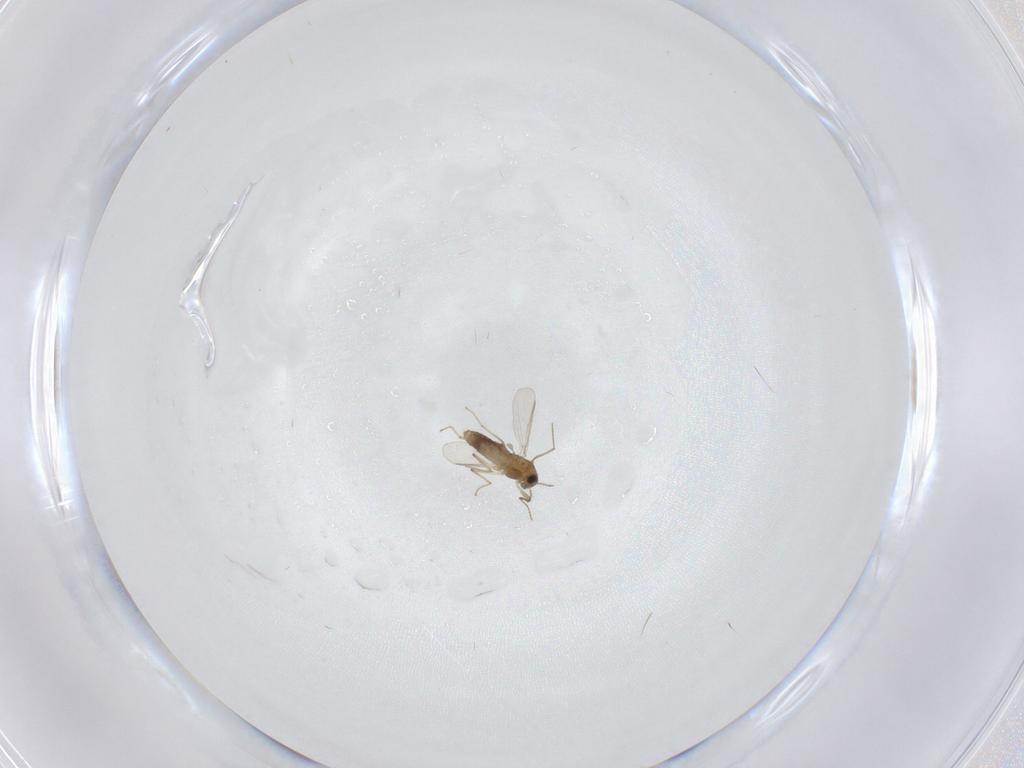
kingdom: Animalia
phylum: Arthropoda
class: Insecta
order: Diptera
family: Chironomidae
